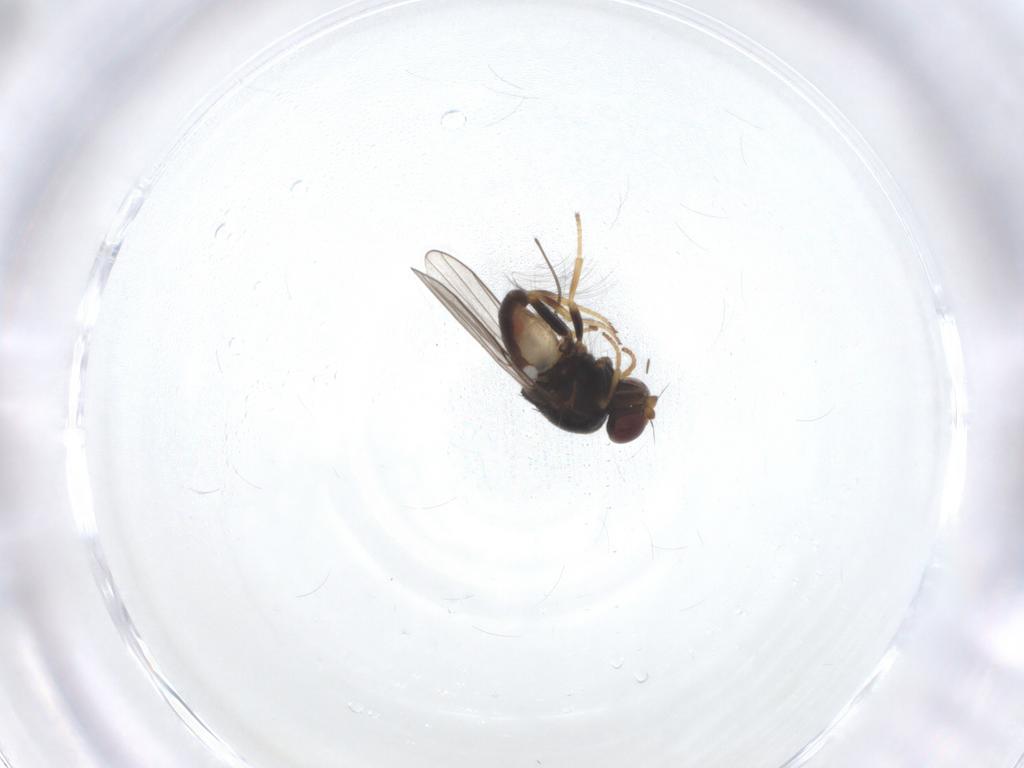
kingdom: Animalia
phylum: Arthropoda
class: Insecta
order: Diptera
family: Chloropidae
